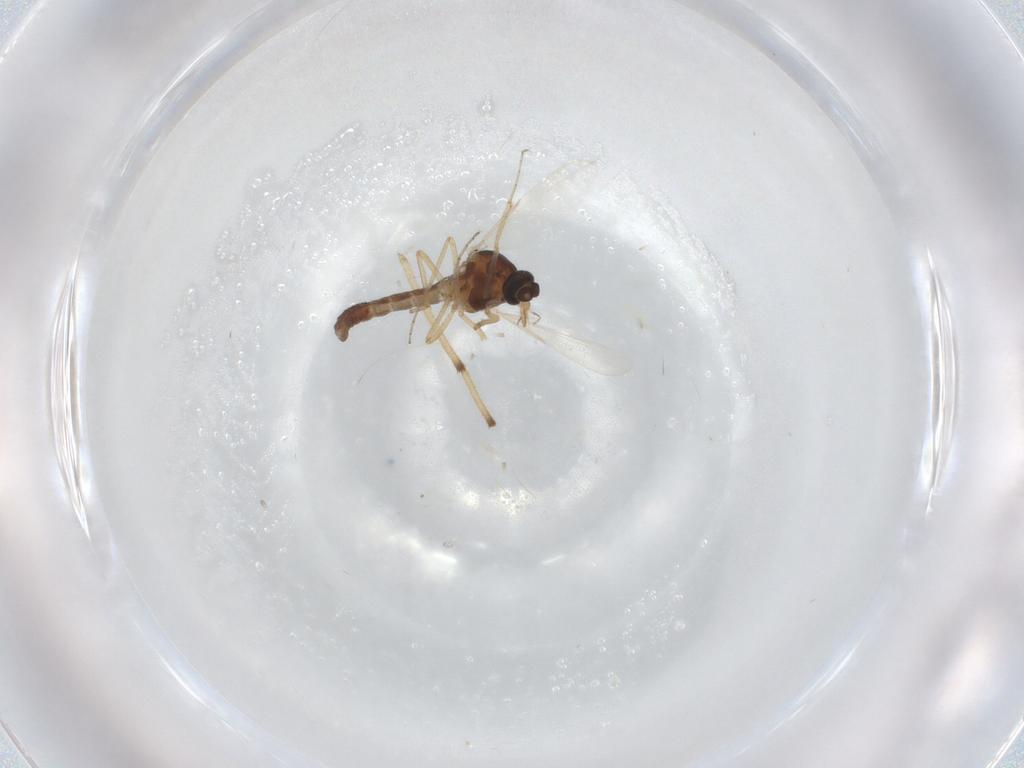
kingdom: Animalia
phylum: Arthropoda
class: Insecta
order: Diptera
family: Ceratopogonidae
